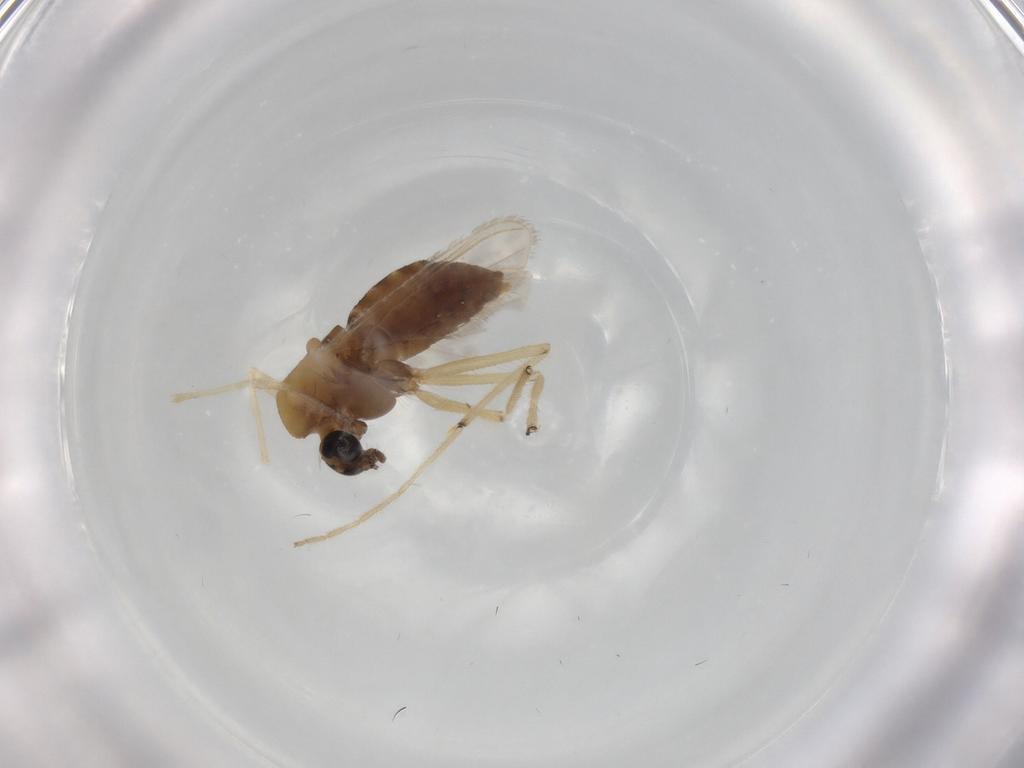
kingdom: Animalia
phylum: Arthropoda
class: Insecta
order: Diptera
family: Chironomidae
